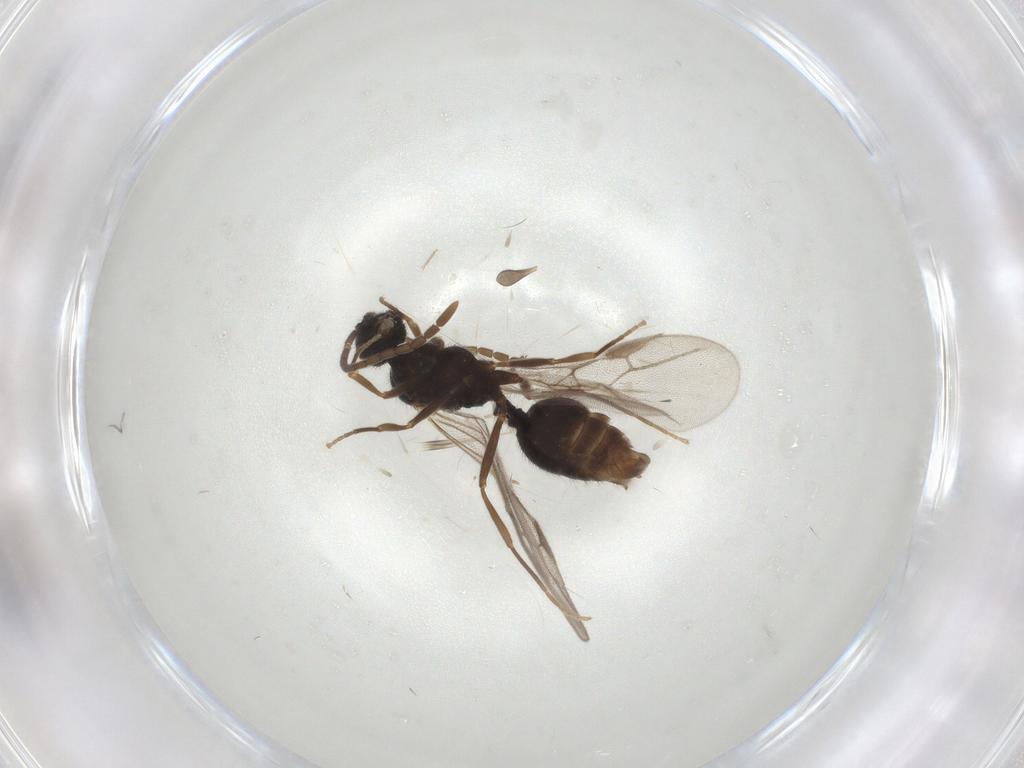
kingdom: Animalia
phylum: Arthropoda
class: Insecta
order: Hymenoptera
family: Formicidae
